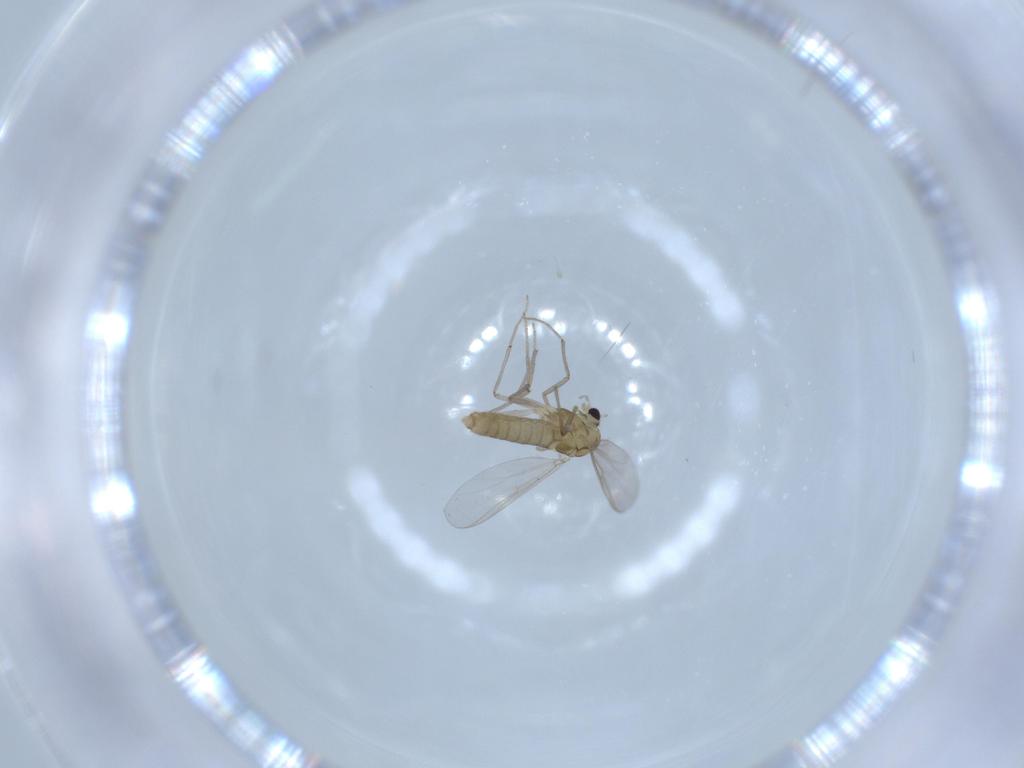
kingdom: Animalia
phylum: Arthropoda
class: Insecta
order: Diptera
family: Chironomidae
